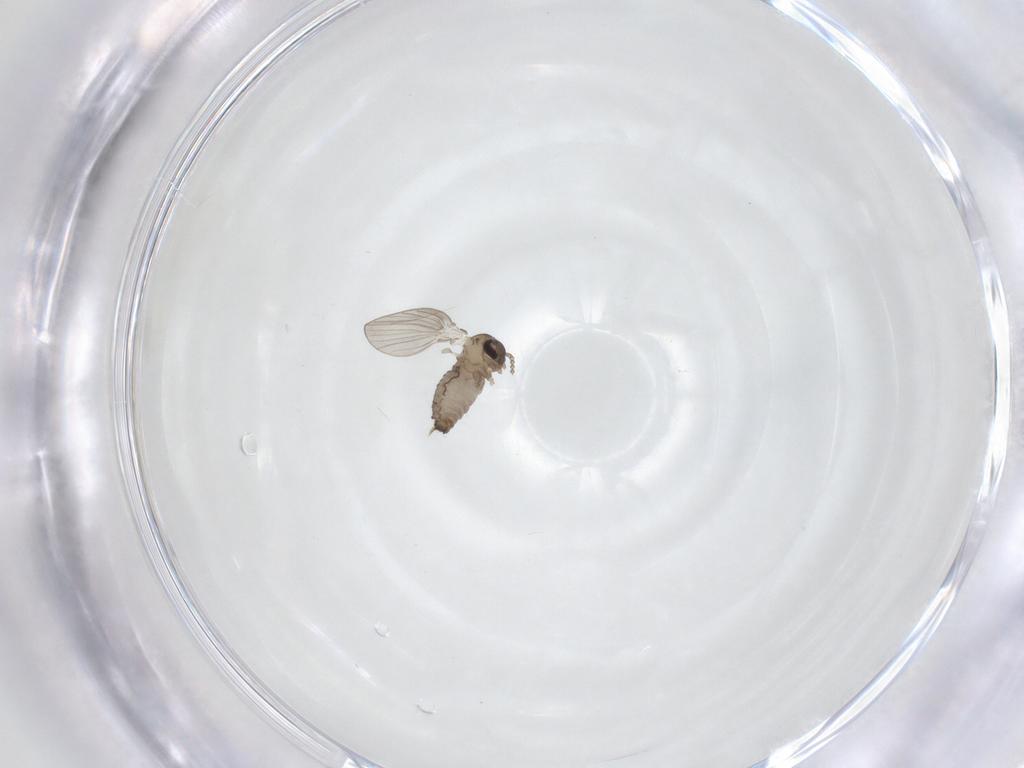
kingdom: Animalia
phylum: Arthropoda
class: Insecta
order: Diptera
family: Psychodidae
